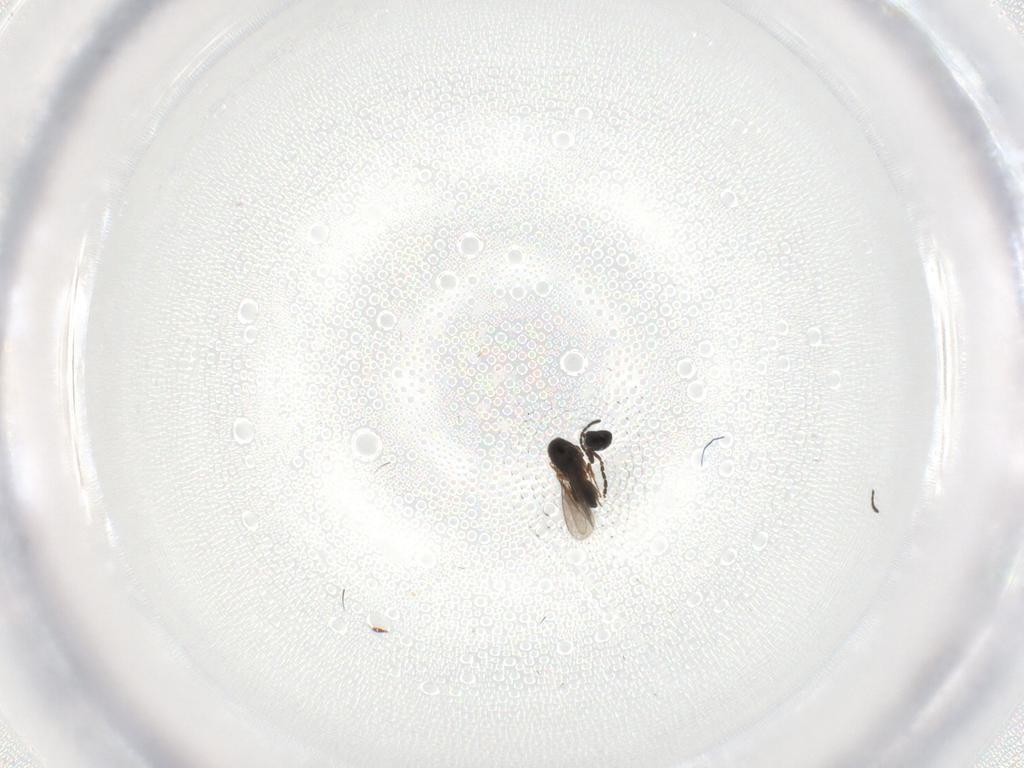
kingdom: Animalia
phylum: Arthropoda
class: Insecta
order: Hymenoptera
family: Scelionidae
